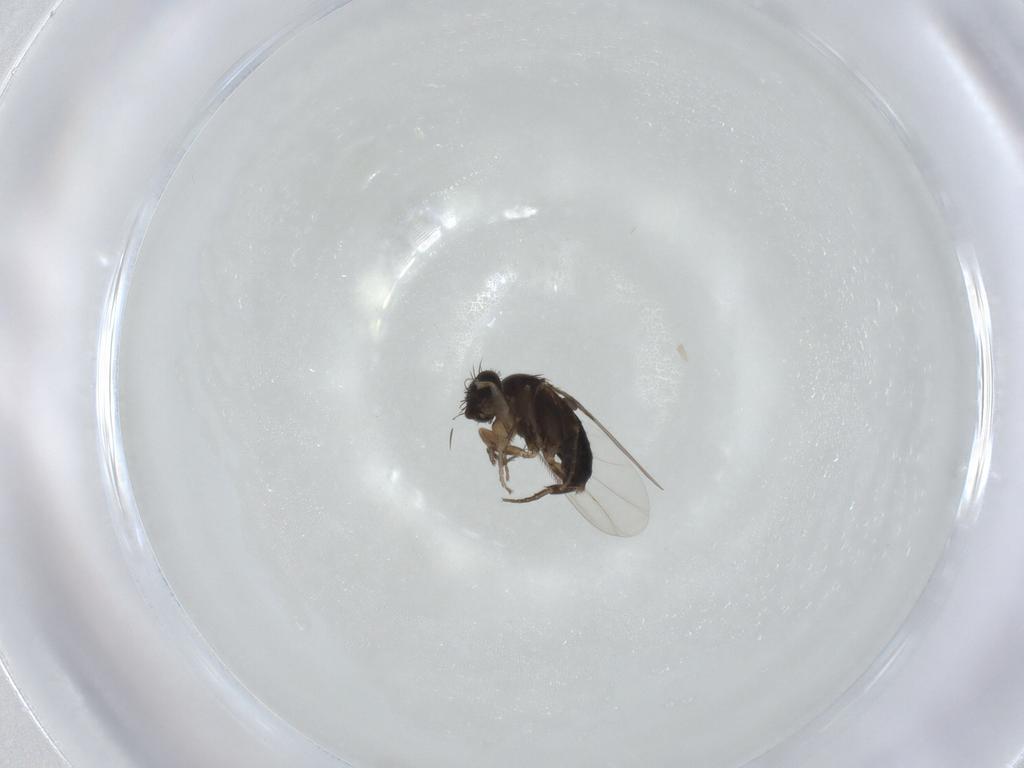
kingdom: Animalia
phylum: Arthropoda
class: Insecta
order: Diptera
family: Phoridae
